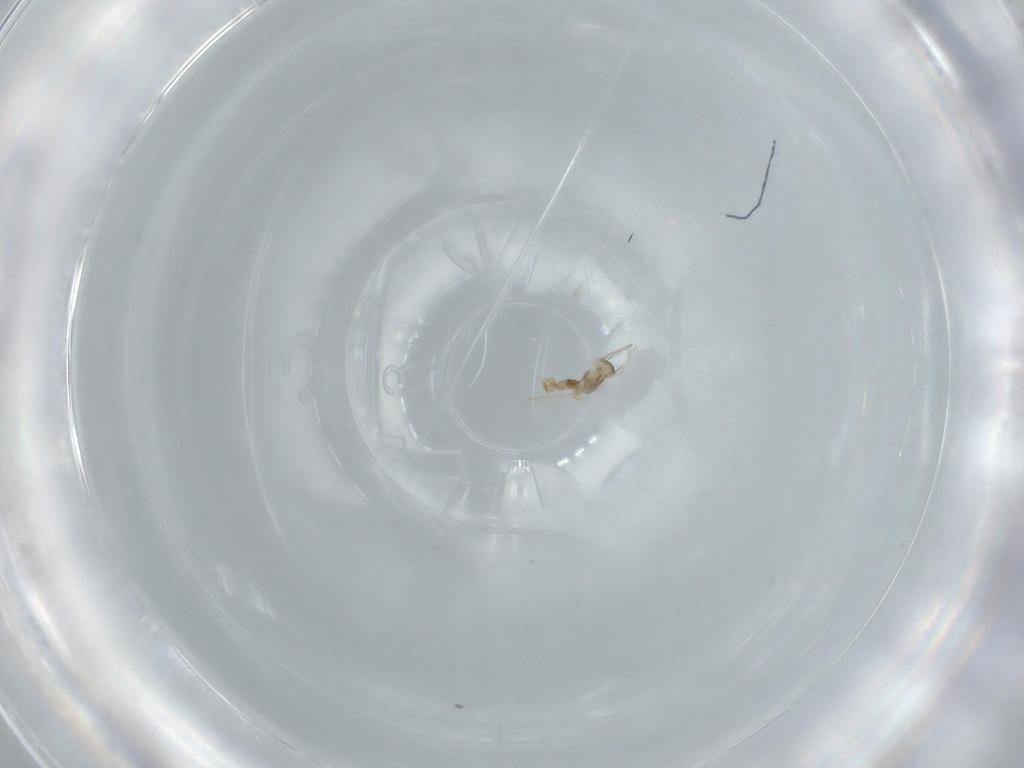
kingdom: Animalia
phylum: Arthropoda
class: Insecta
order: Diptera
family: Cecidomyiidae
